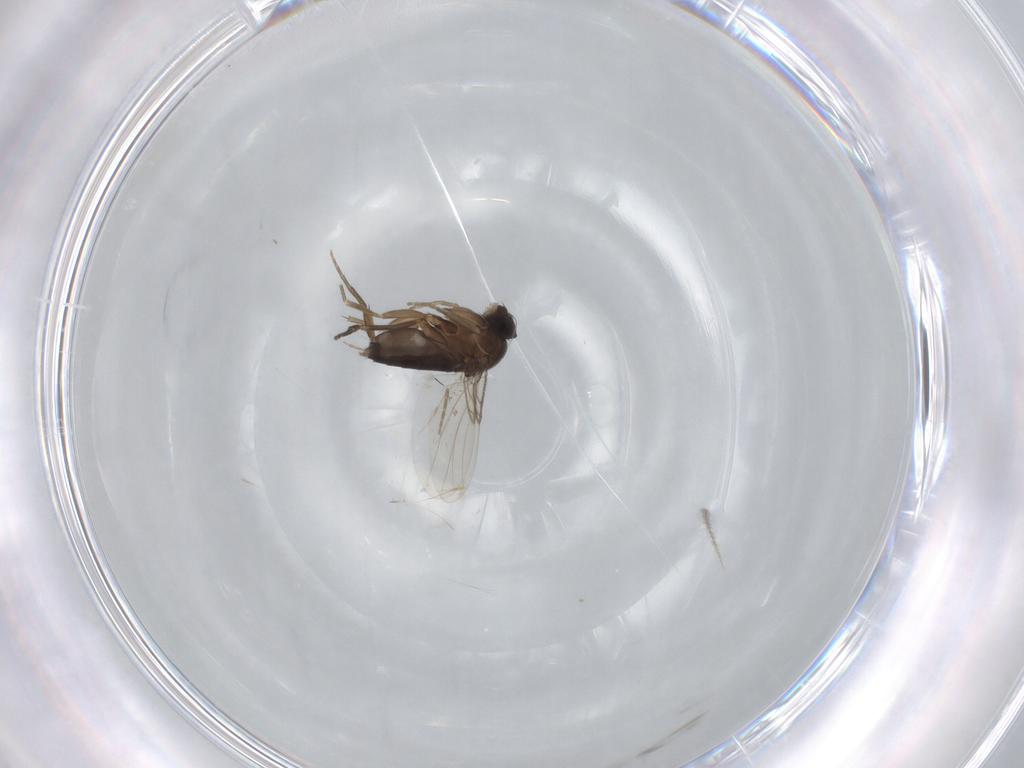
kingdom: Animalia
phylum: Arthropoda
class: Insecta
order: Diptera
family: Phoridae
